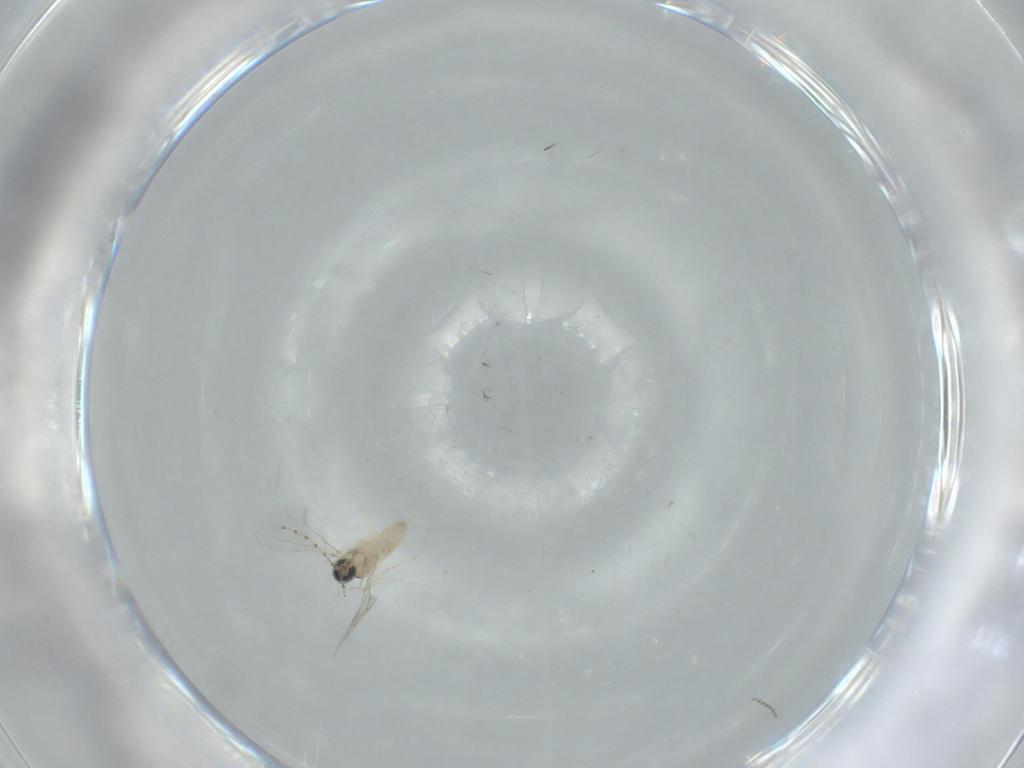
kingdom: Animalia
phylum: Arthropoda
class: Insecta
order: Diptera
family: Cecidomyiidae
